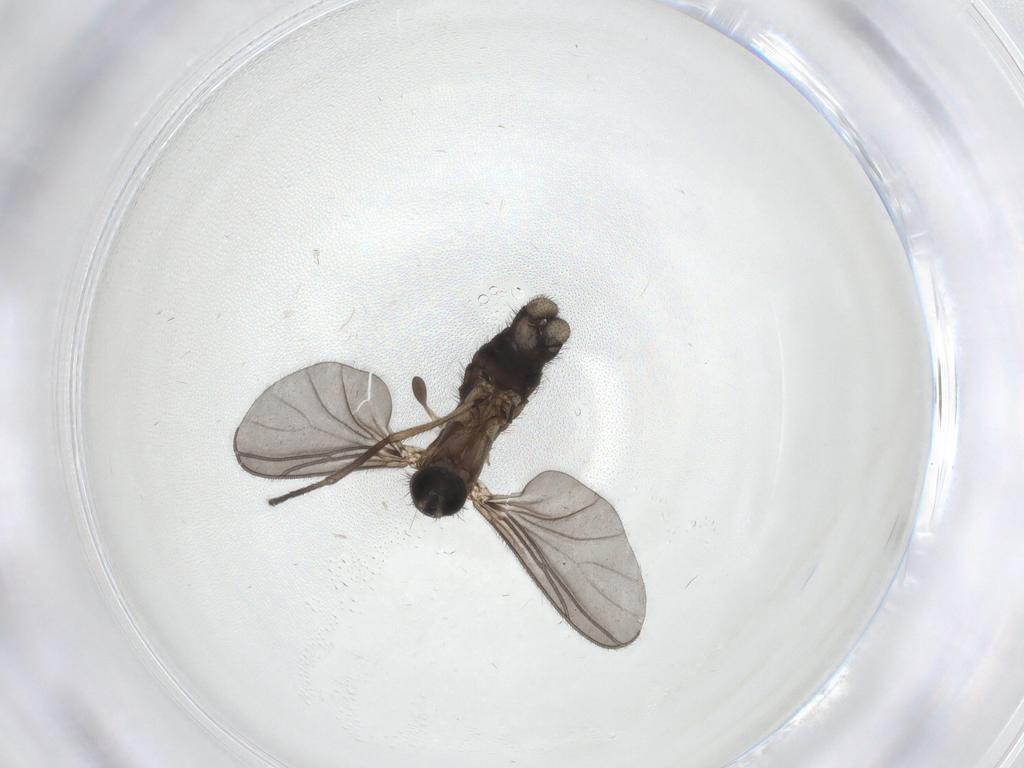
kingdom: Animalia
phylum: Arthropoda
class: Insecta
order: Diptera
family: Sciaridae
